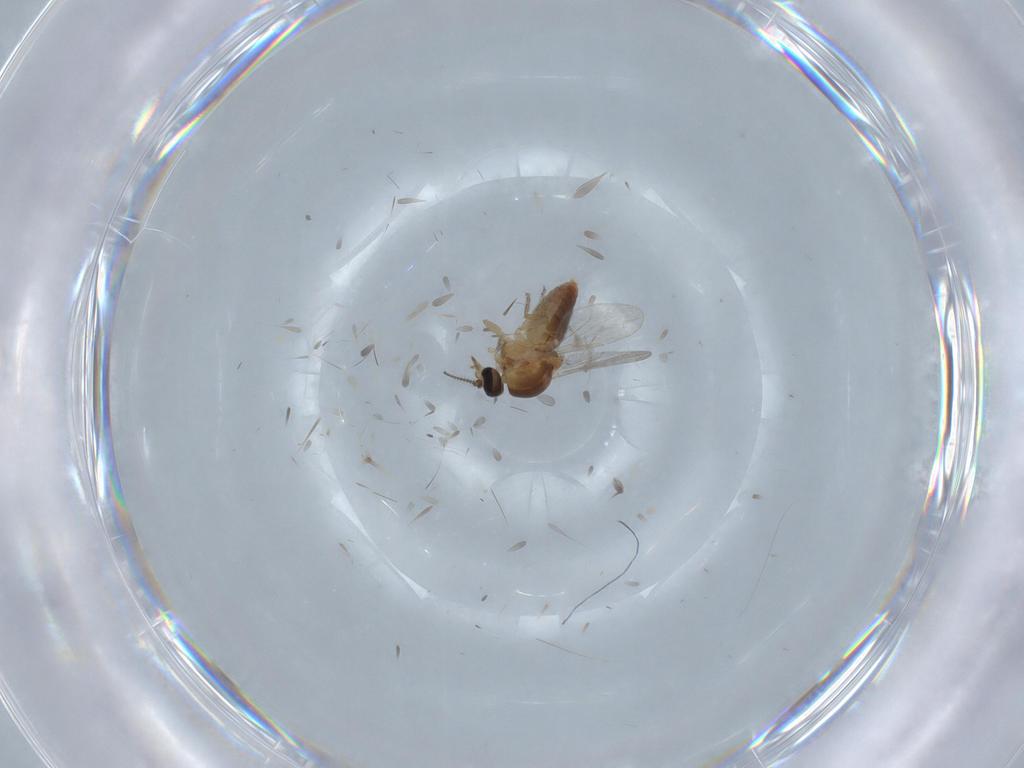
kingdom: Animalia
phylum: Arthropoda
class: Insecta
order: Diptera
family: Ceratopogonidae
